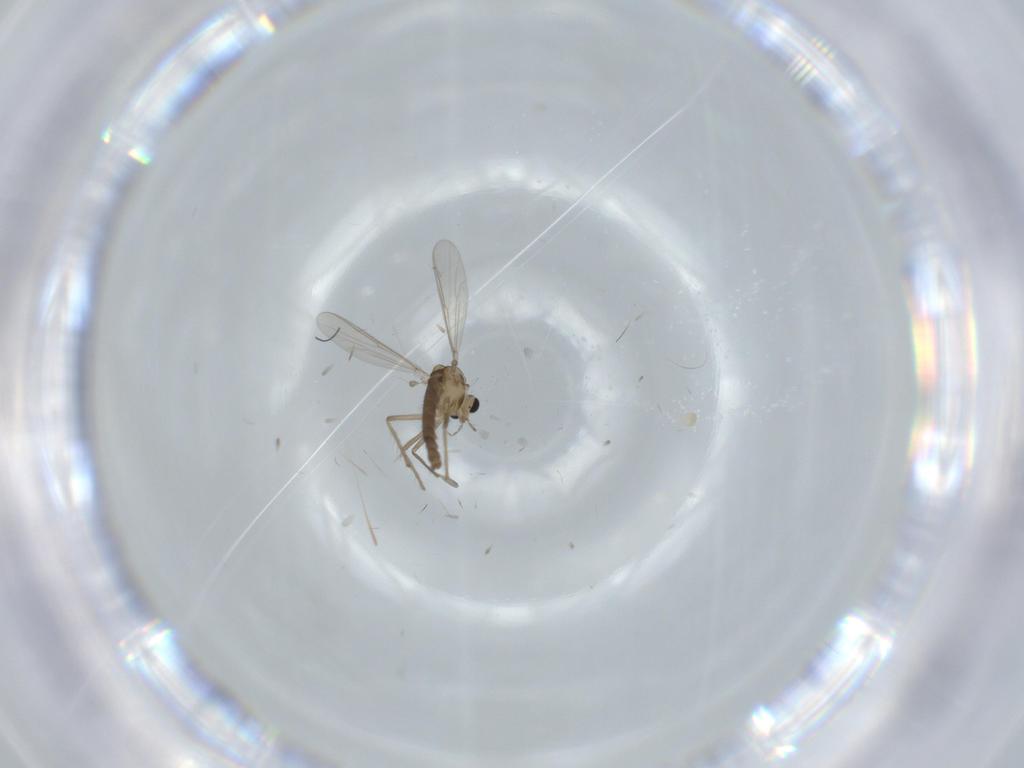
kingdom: Animalia
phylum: Arthropoda
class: Insecta
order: Diptera
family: Chironomidae
